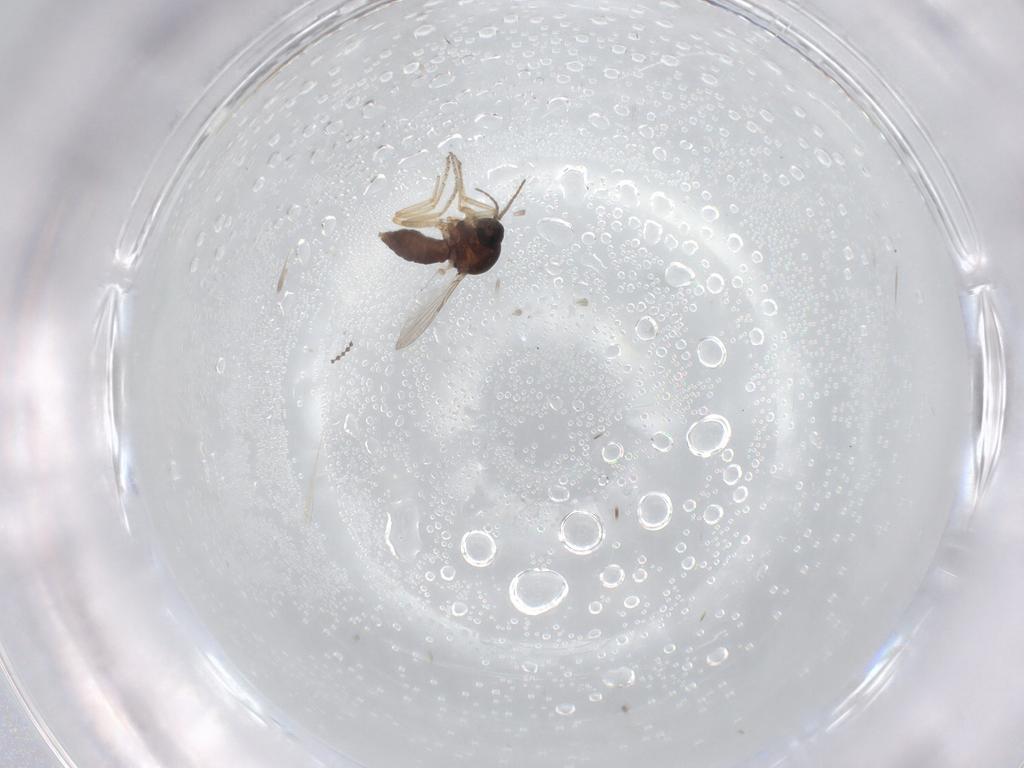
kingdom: Animalia
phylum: Arthropoda
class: Insecta
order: Diptera
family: Ceratopogonidae
